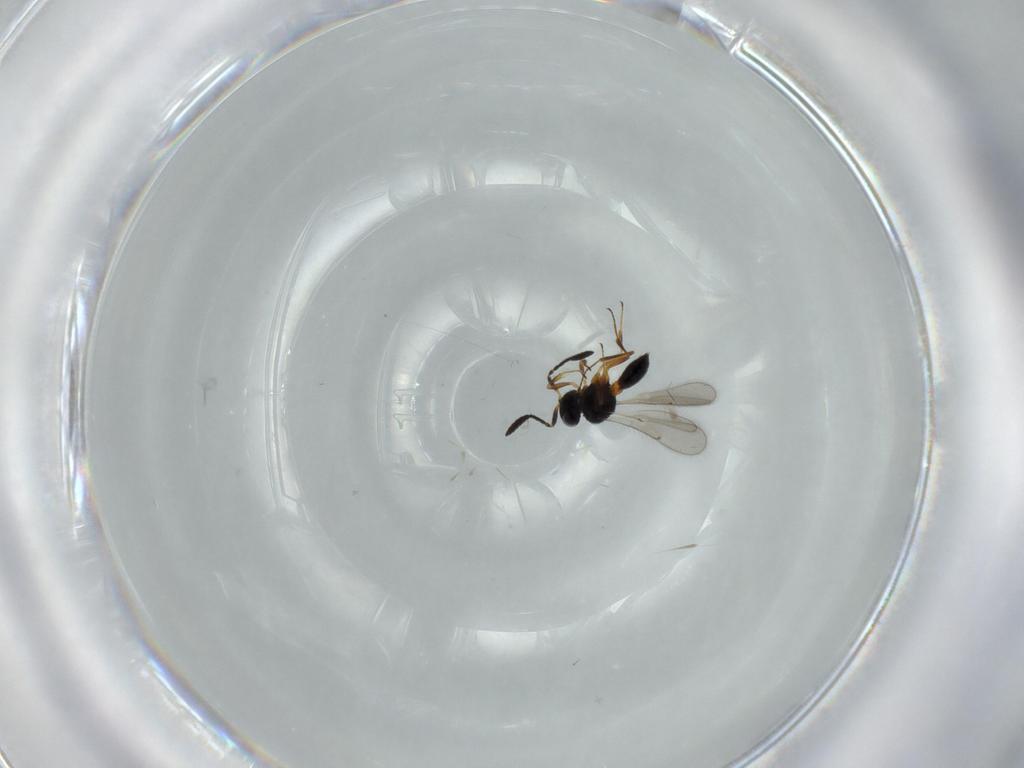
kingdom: Animalia
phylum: Arthropoda
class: Insecta
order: Hymenoptera
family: Scelionidae
